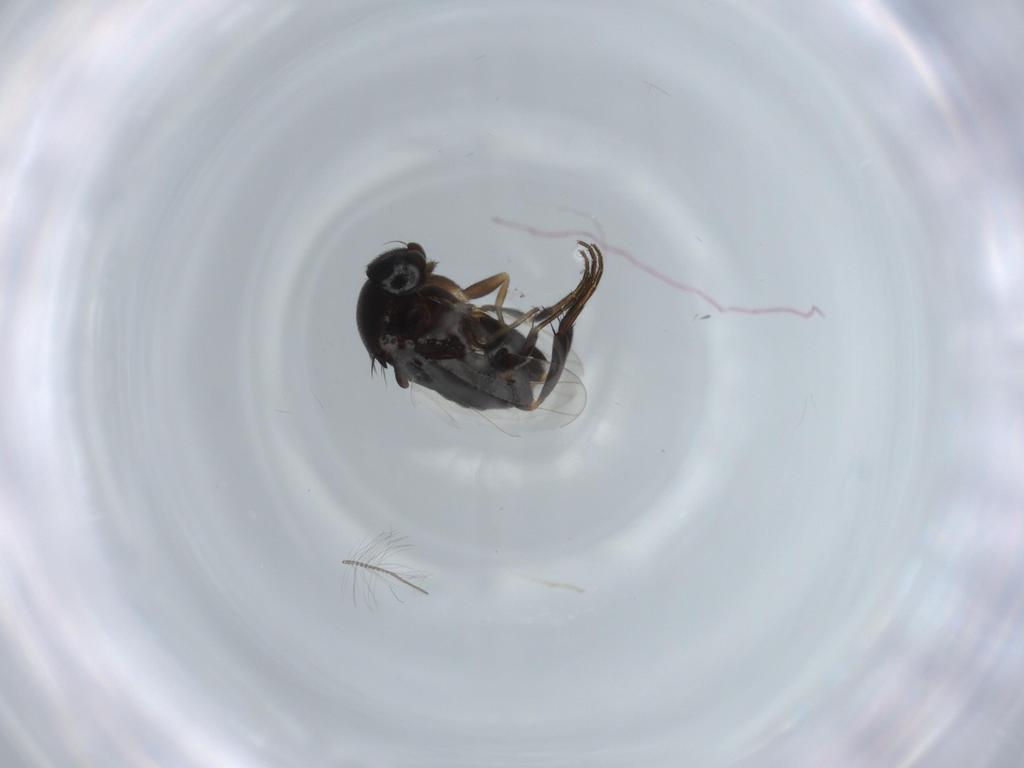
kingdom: Animalia
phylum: Arthropoda
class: Insecta
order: Diptera
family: Phoridae
